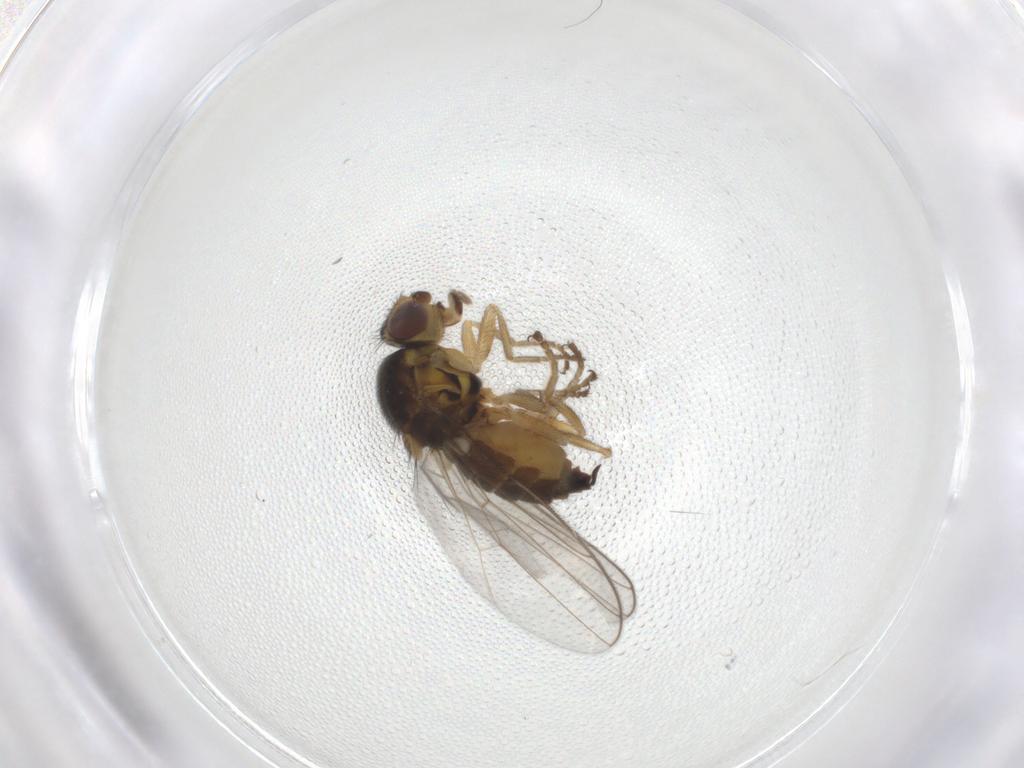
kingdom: Animalia
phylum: Arthropoda
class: Insecta
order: Diptera
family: Chloropidae
